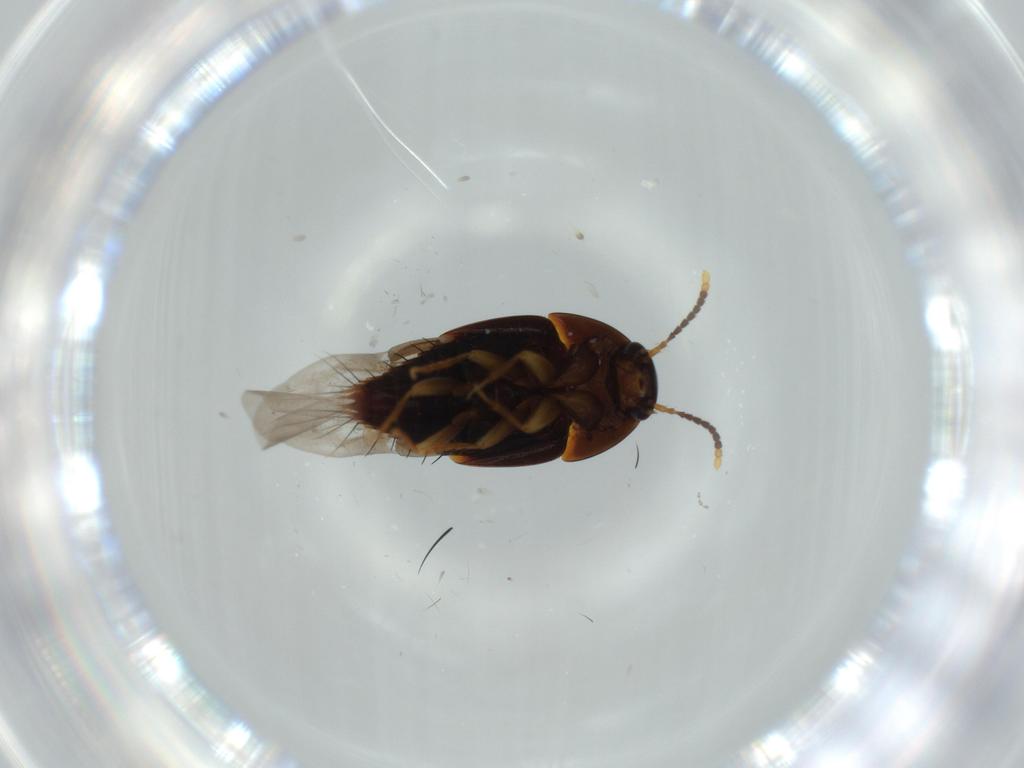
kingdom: Animalia
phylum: Arthropoda
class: Insecta
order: Coleoptera
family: Staphylinidae
